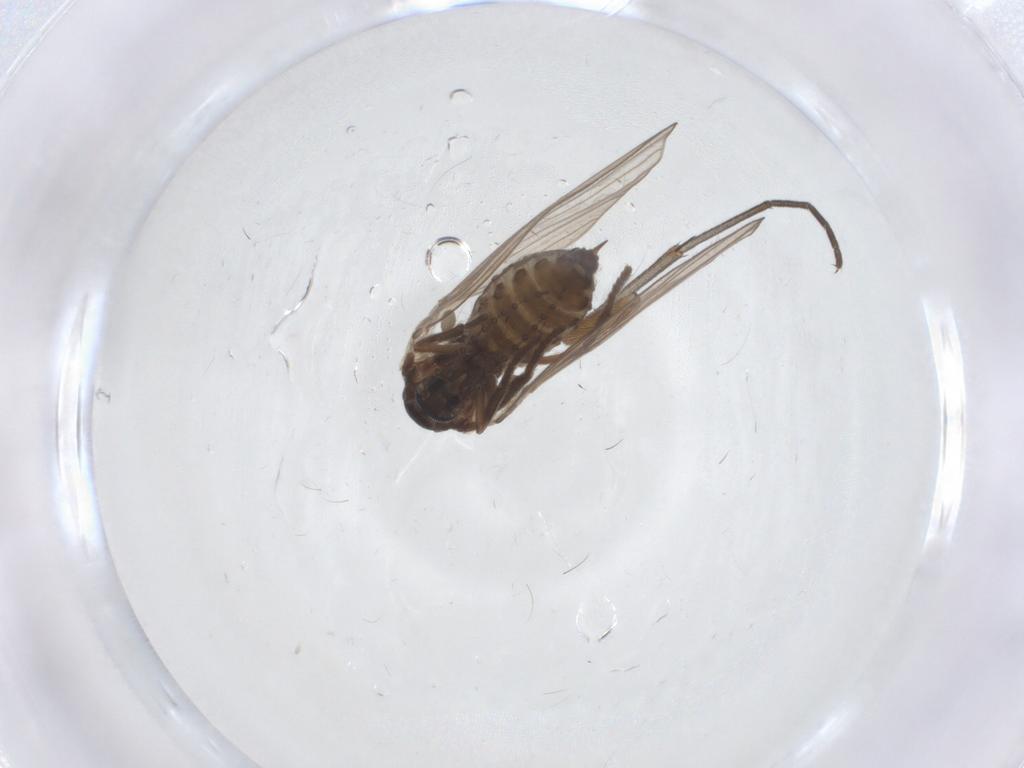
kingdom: Animalia
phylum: Arthropoda
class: Insecta
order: Diptera
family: Psychodidae
